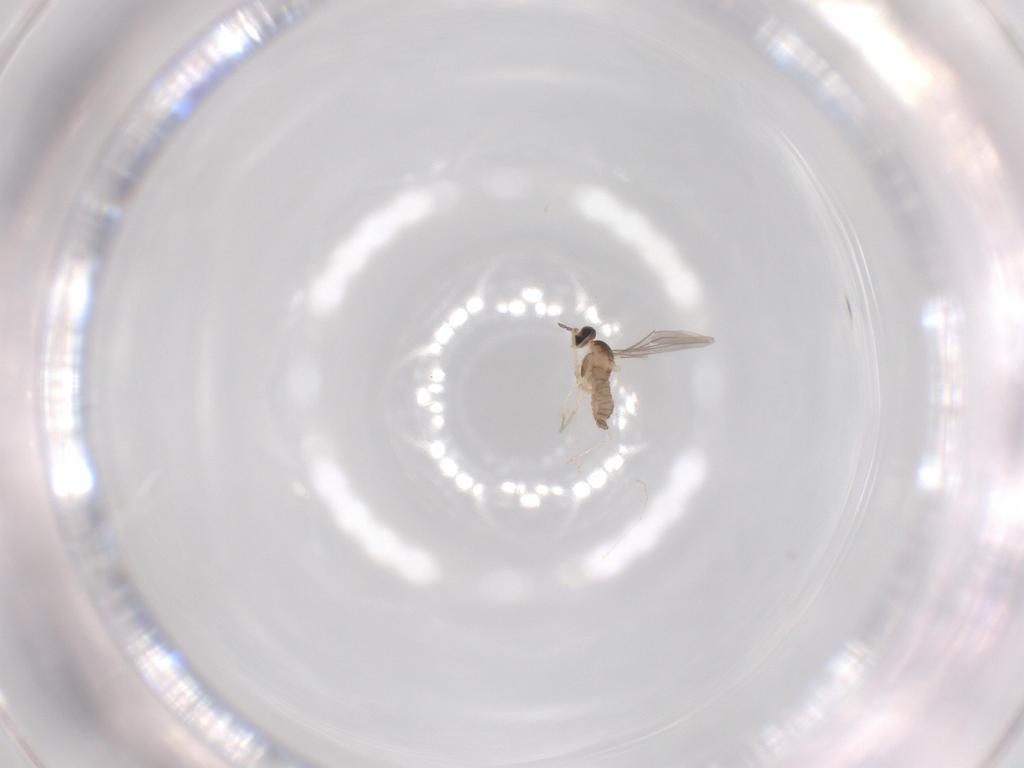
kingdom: Animalia
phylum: Arthropoda
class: Insecta
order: Diptera
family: Cecidomyiidae
